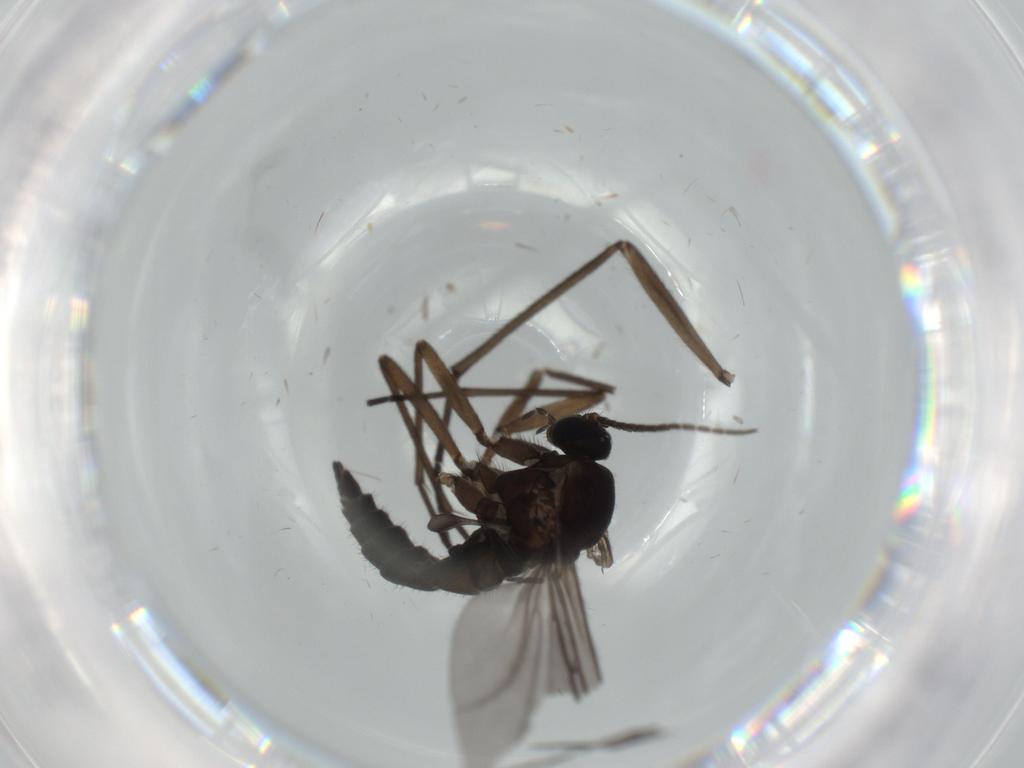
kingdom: Animalia
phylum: Arthropoda
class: Insecta
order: Diptera
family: Sciaridae
